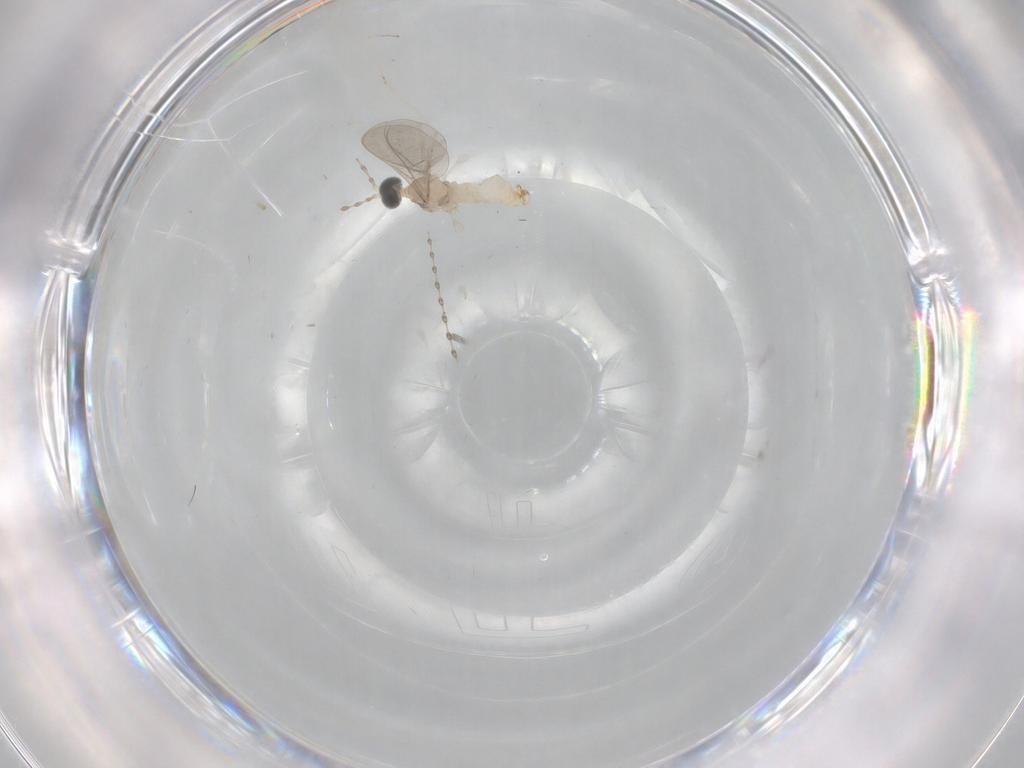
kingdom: Animalia
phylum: Arthropoda
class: Insecta
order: Diptera
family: Cecidomyiidae
